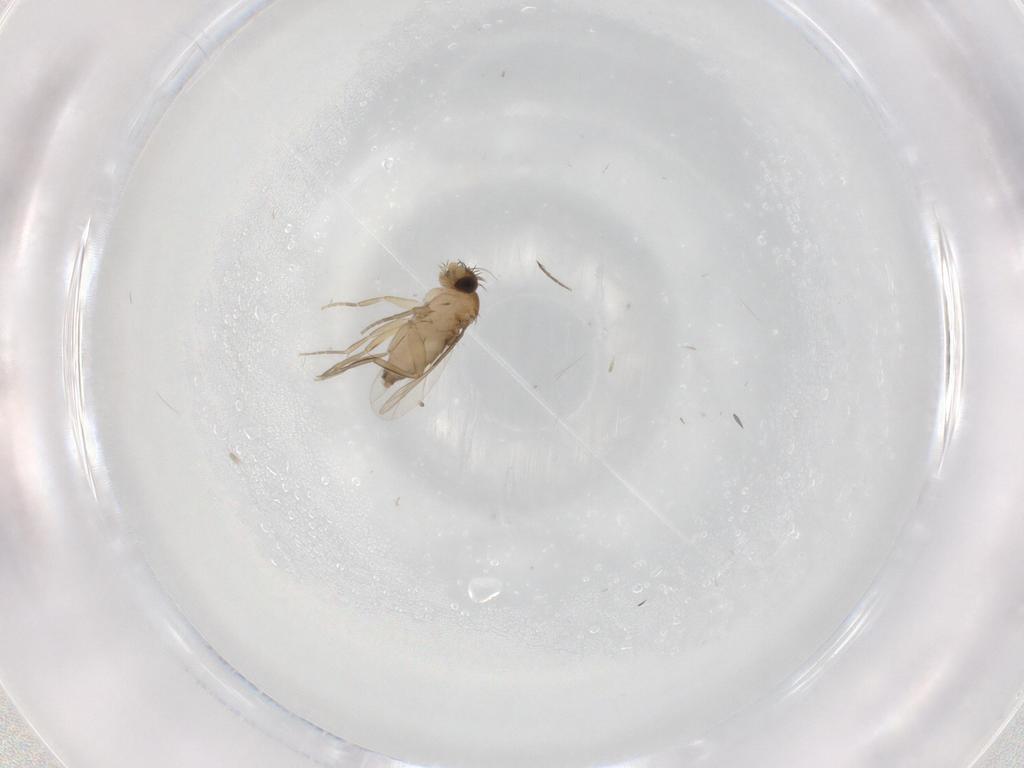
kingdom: Animalia
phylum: Arthropoda
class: Insecta
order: Diptera
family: Phoridae
